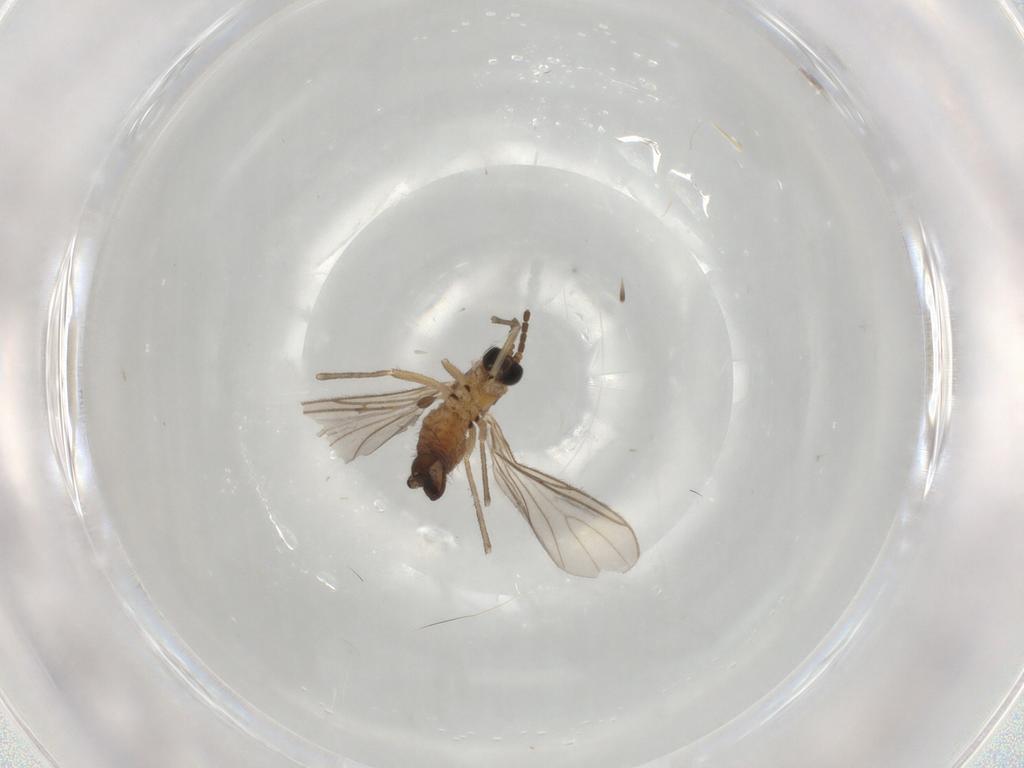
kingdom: Animalia
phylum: Arthropoda
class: Insecta
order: Diptera
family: Sciaridae
